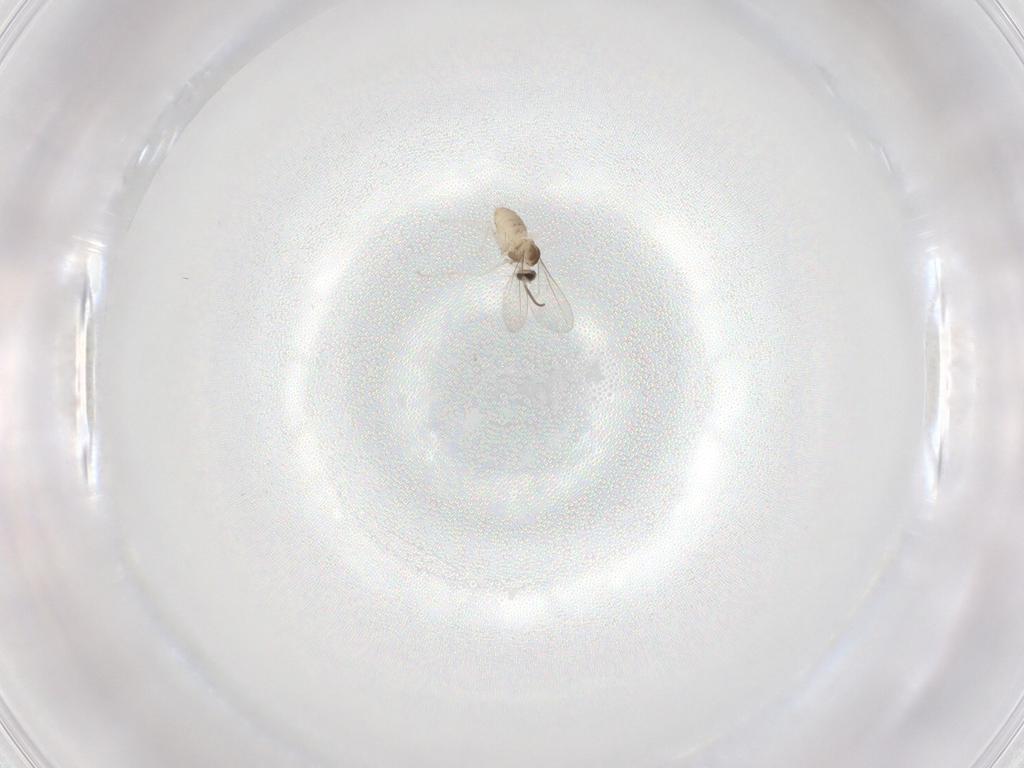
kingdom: Animalia
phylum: Arthropoda
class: Insecta
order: Diptera
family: Cecidomyiidae
